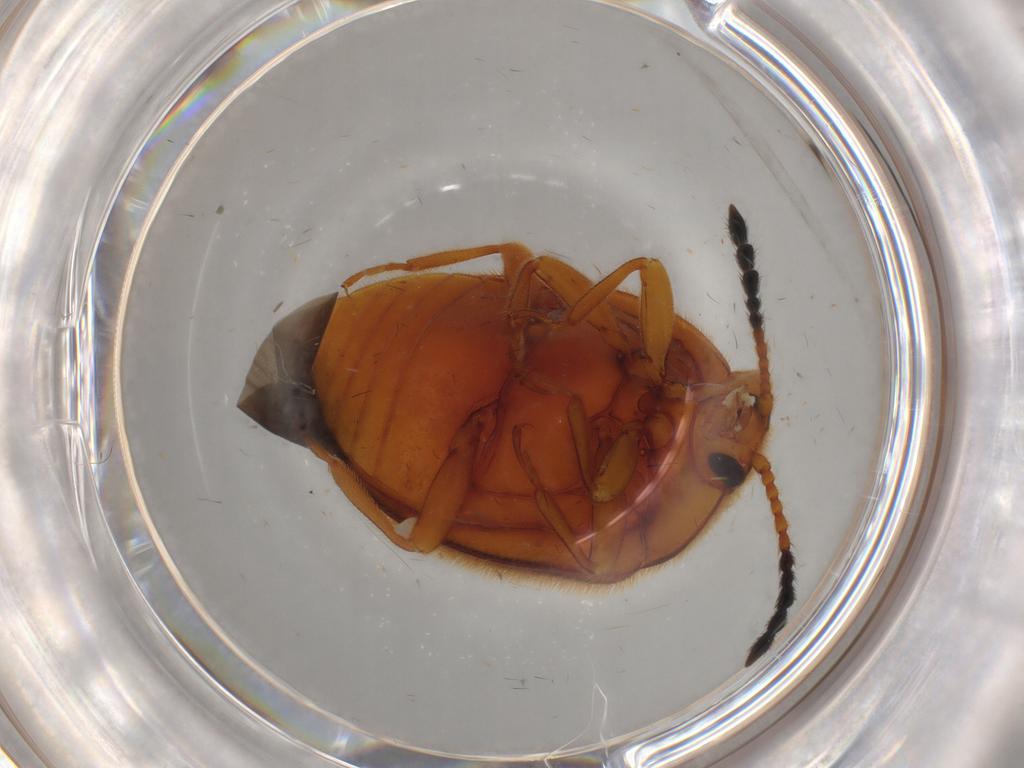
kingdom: Animalia
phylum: Arthropoda
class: Insecta
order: Coleoptera
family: Endomychidae
